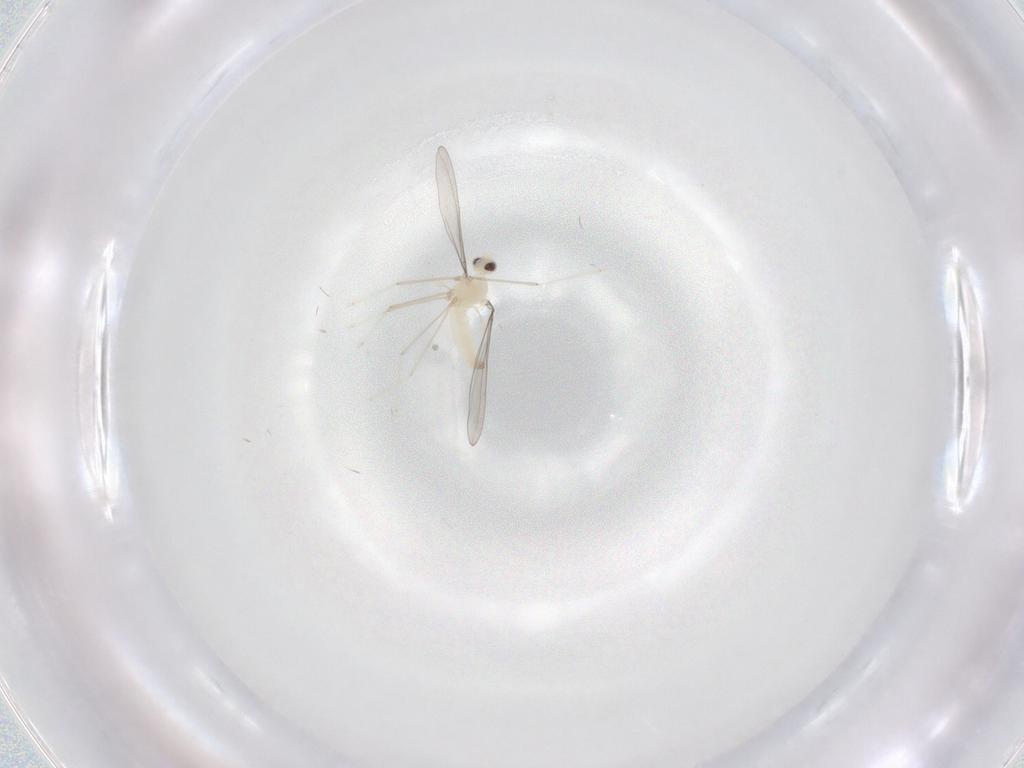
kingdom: Animalia
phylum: Arthropoda
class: Insecta
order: Diptera
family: Cecidomyiidae
